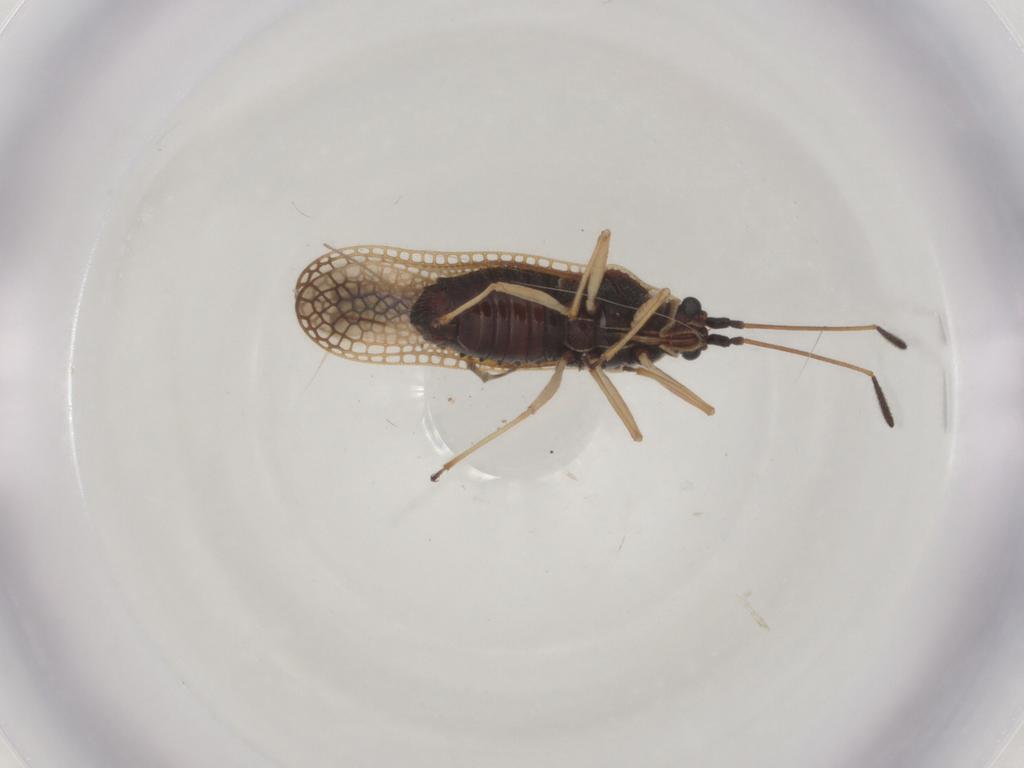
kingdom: Animalia
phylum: Arthropoda
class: Insecta
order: Hemiptera
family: Tingidae
